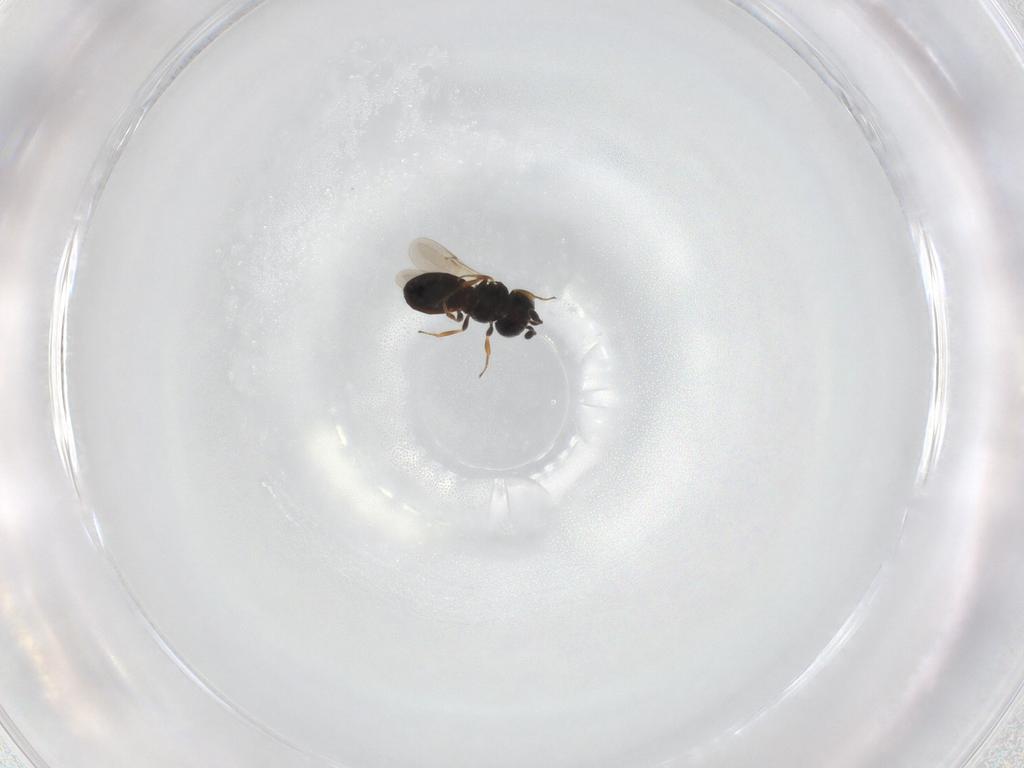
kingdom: Animalia
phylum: Arthropoda
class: Insecta
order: Hymenoptera
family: Scelionidae
